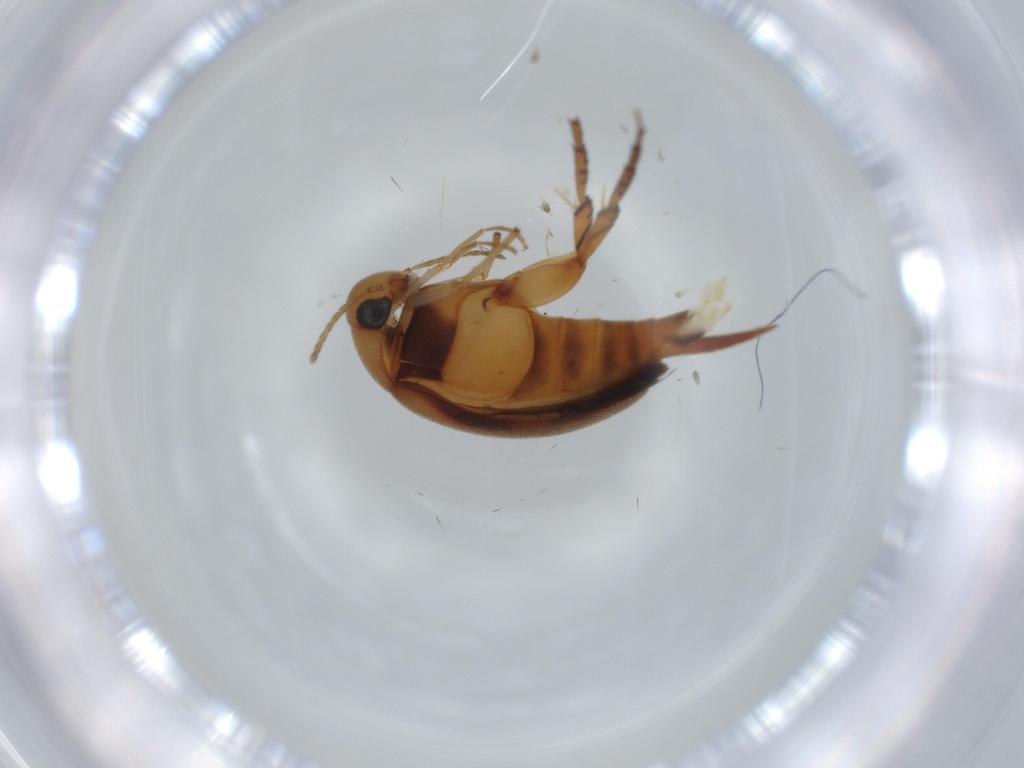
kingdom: Animalia
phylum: Arthropoda
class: Insecta
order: Coleoptera
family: Mordellidae
